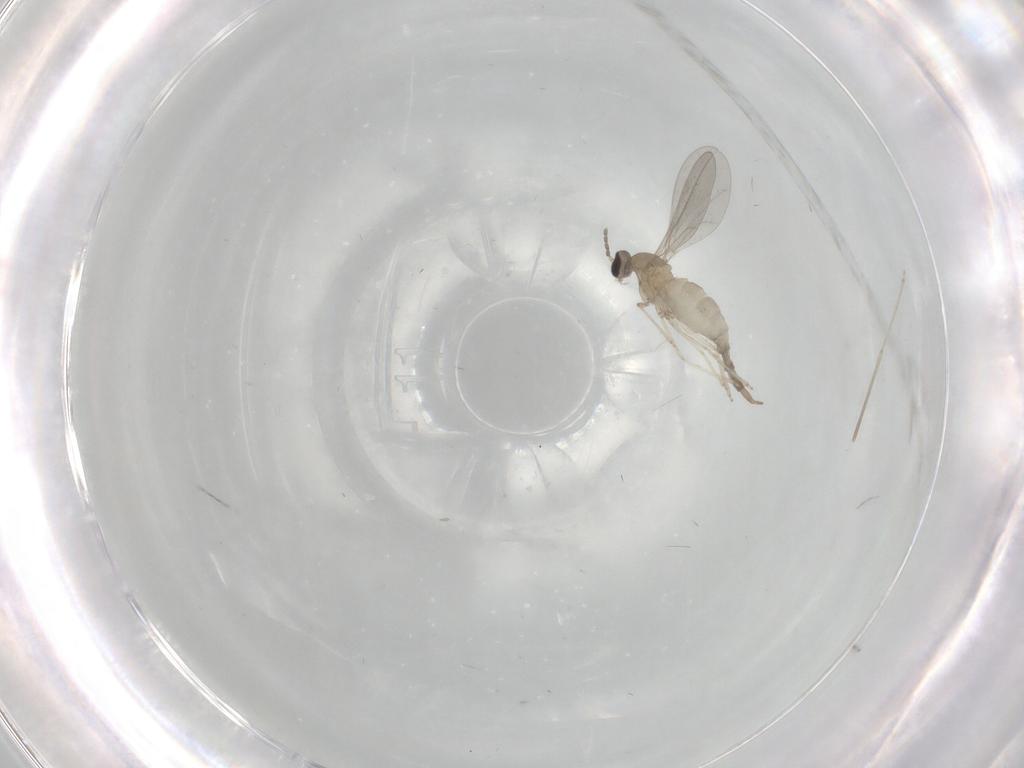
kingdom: Animalia
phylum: Arthropoda
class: Insecta
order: Diptera
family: Cecidomyiidae
